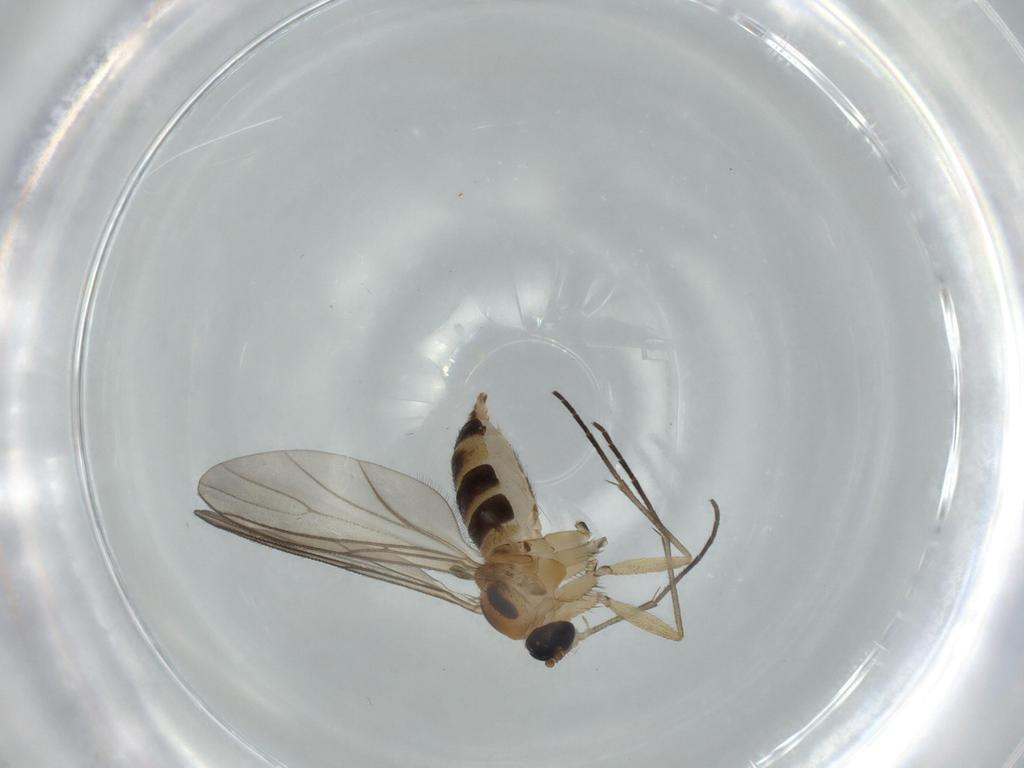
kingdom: Animalia
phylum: Arthropoda
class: Insecta
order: Diptera
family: Sciaridae
